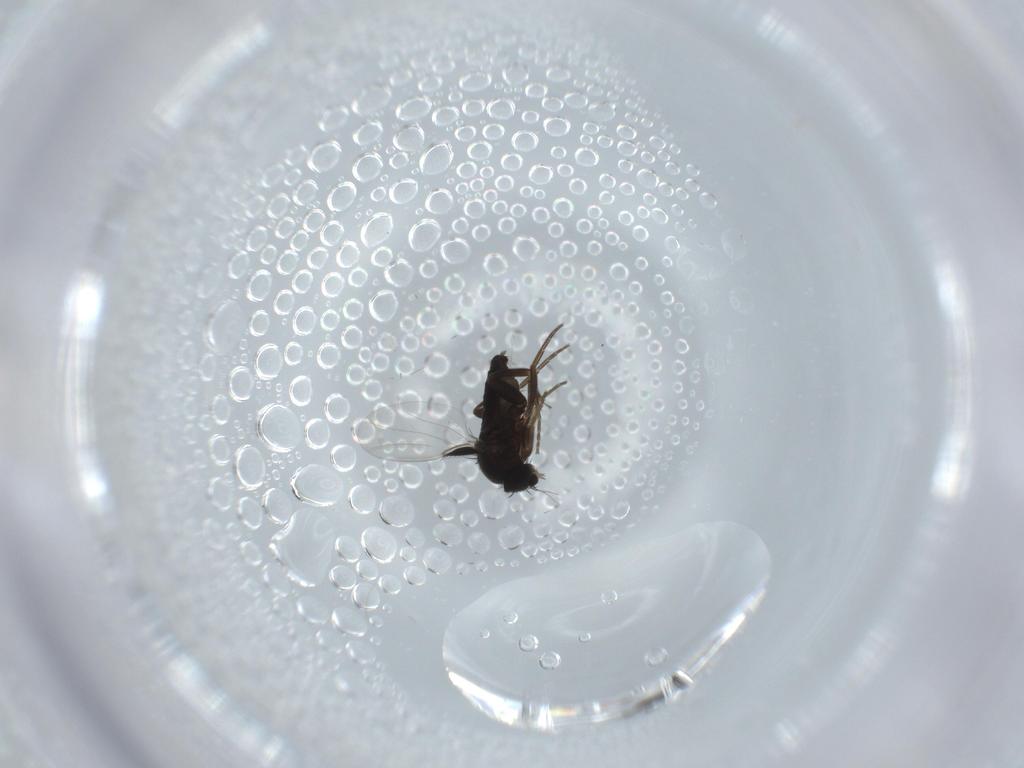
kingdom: Animalia
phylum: Arthropoda
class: Insecta
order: Diptera
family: Phoridae
